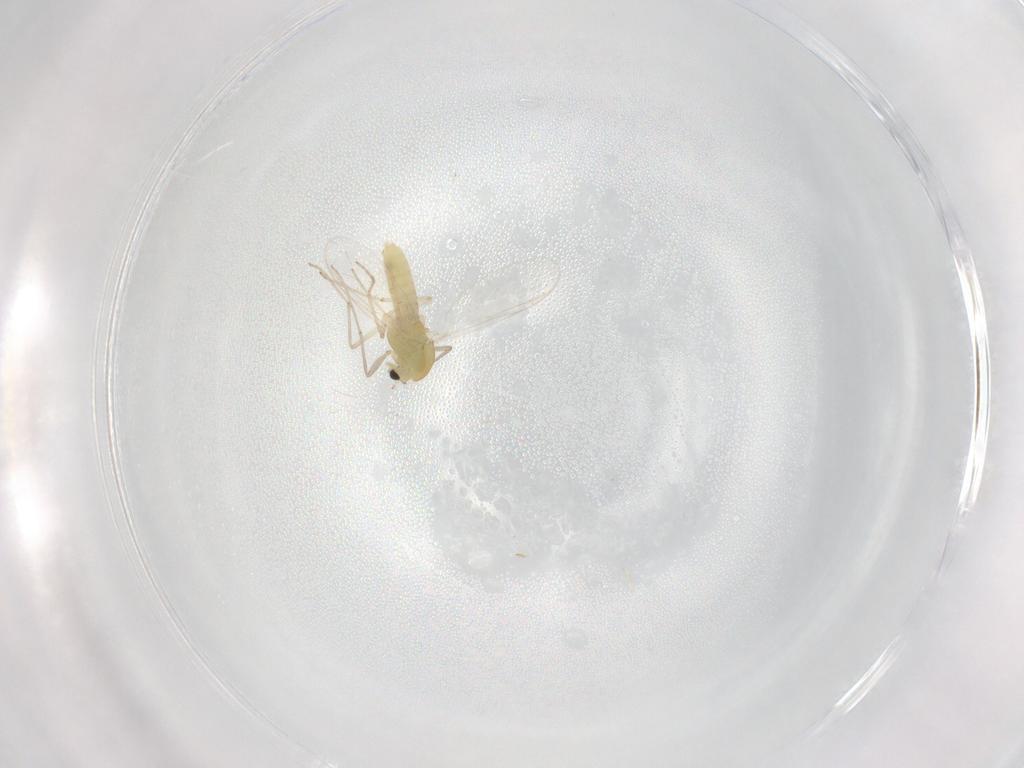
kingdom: Animalia
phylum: Arthropoda
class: Insecta
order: Diptera
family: Chironomidae
